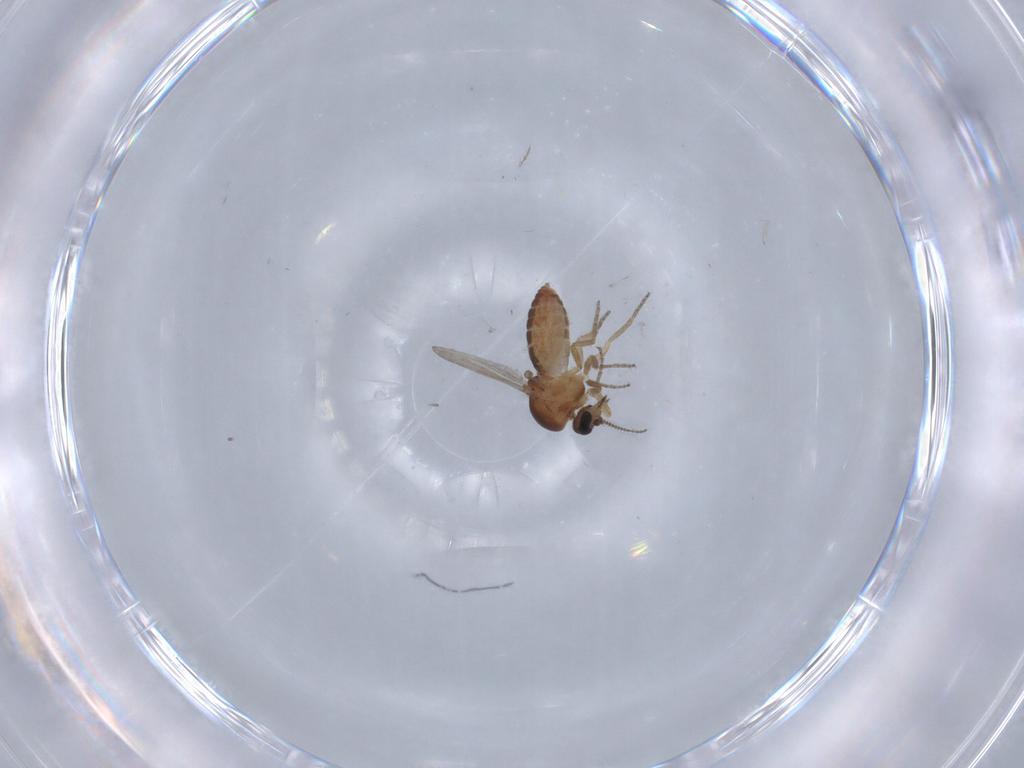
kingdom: Animalia
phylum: Arthropoda
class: Insecta
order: Diptera
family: Ceratopogonidae
